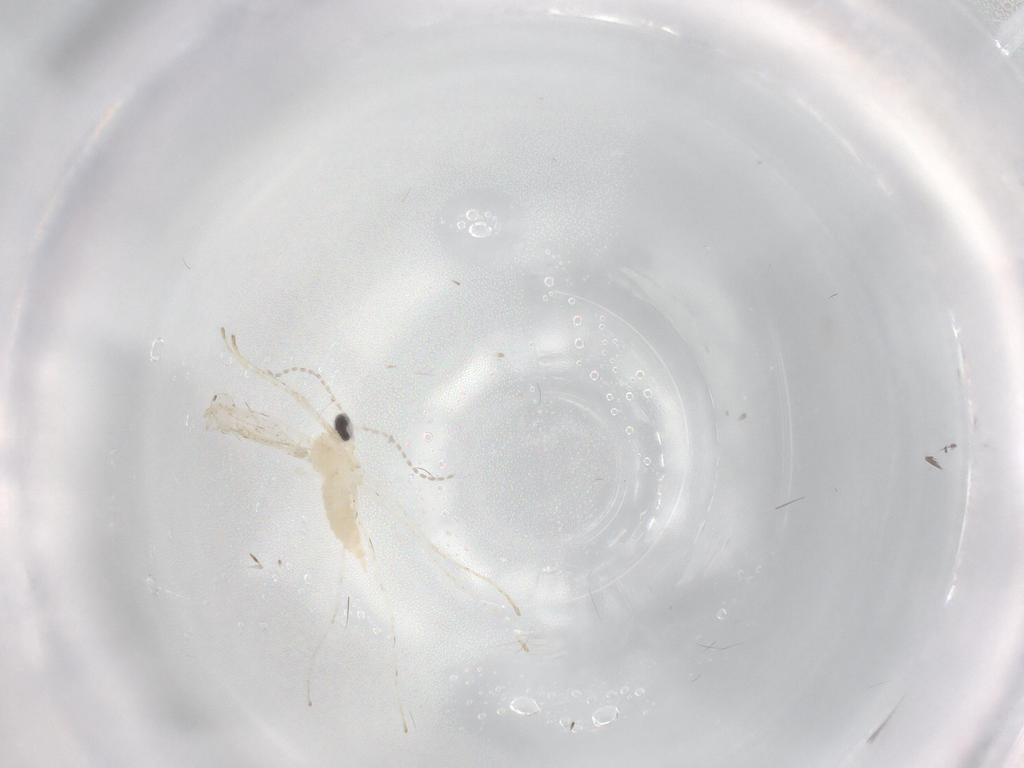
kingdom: Animalia
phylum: Arthropoda
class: Insecta
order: Diptera
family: Cecidomyiidae
